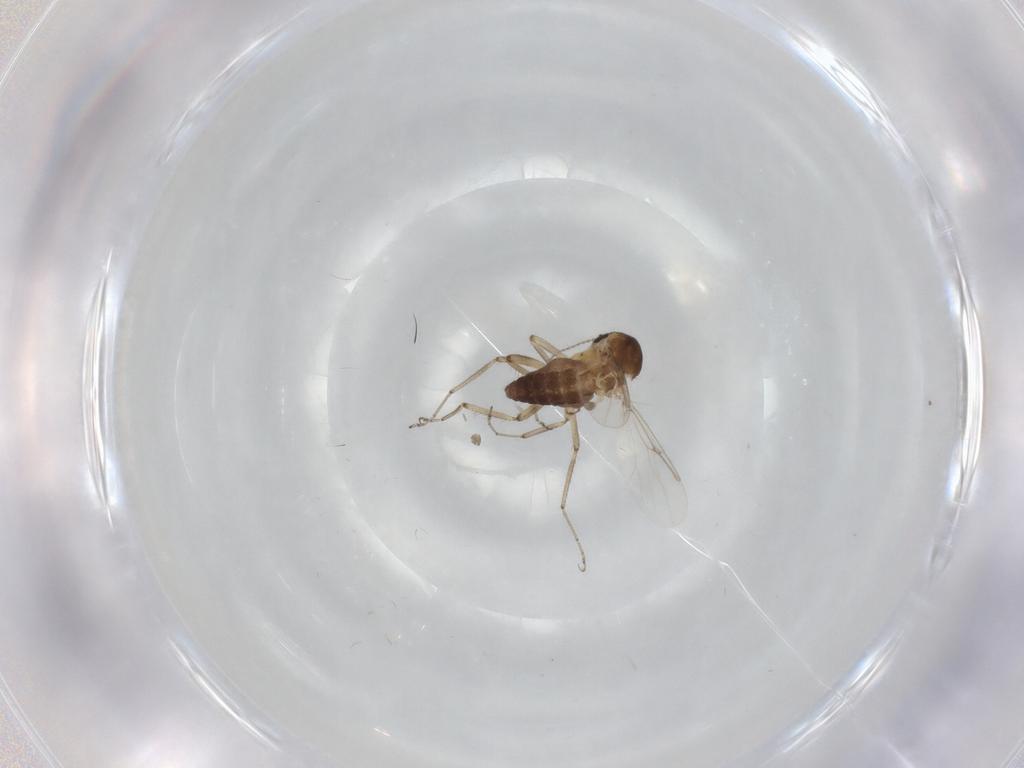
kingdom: Animalia
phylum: Arthropoda
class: Insecta
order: Diptera
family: Ceratopogonidae
